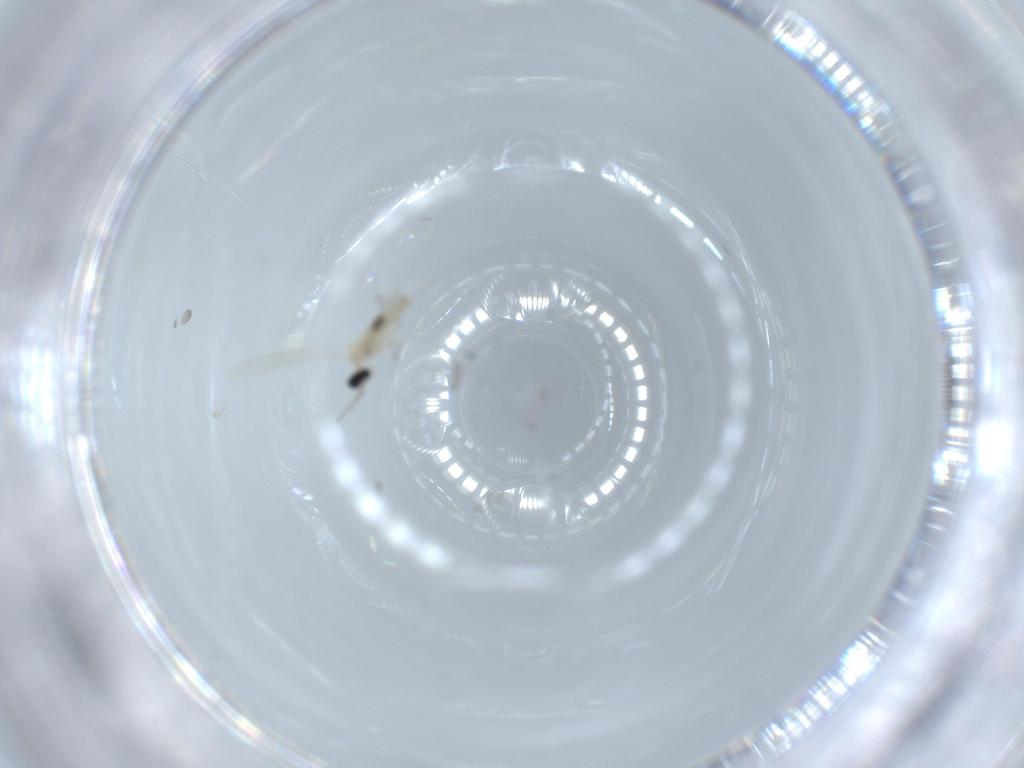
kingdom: Animalia
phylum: Arthropoda
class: Insecta
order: Diptera
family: Cecidomyiidae
